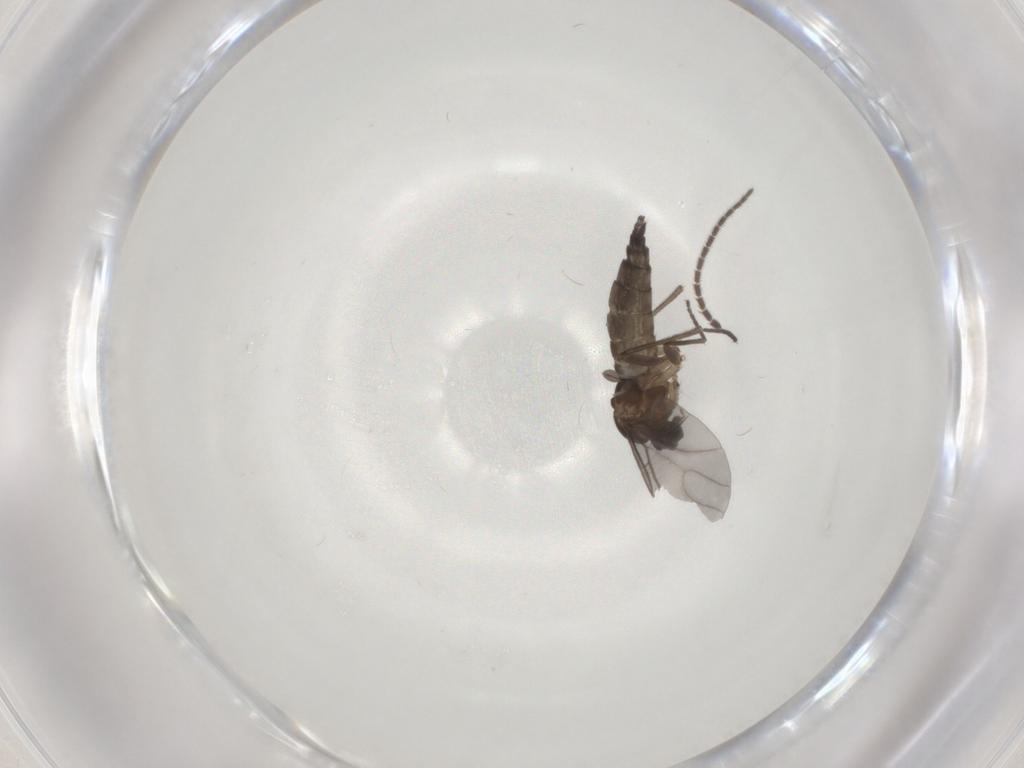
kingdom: Animalia
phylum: Arthropoda
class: Insecta
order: Diptera
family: Sciaridae
